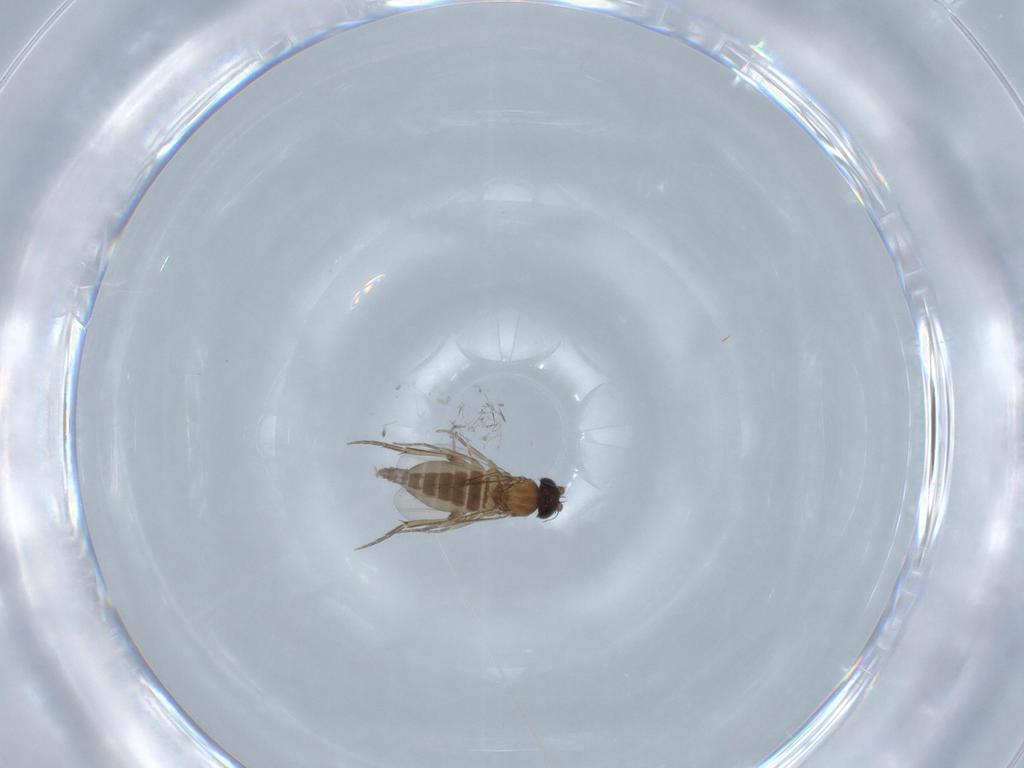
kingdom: Animalia
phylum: Arthropoda
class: Insecta
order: Diptera
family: Phoridae
